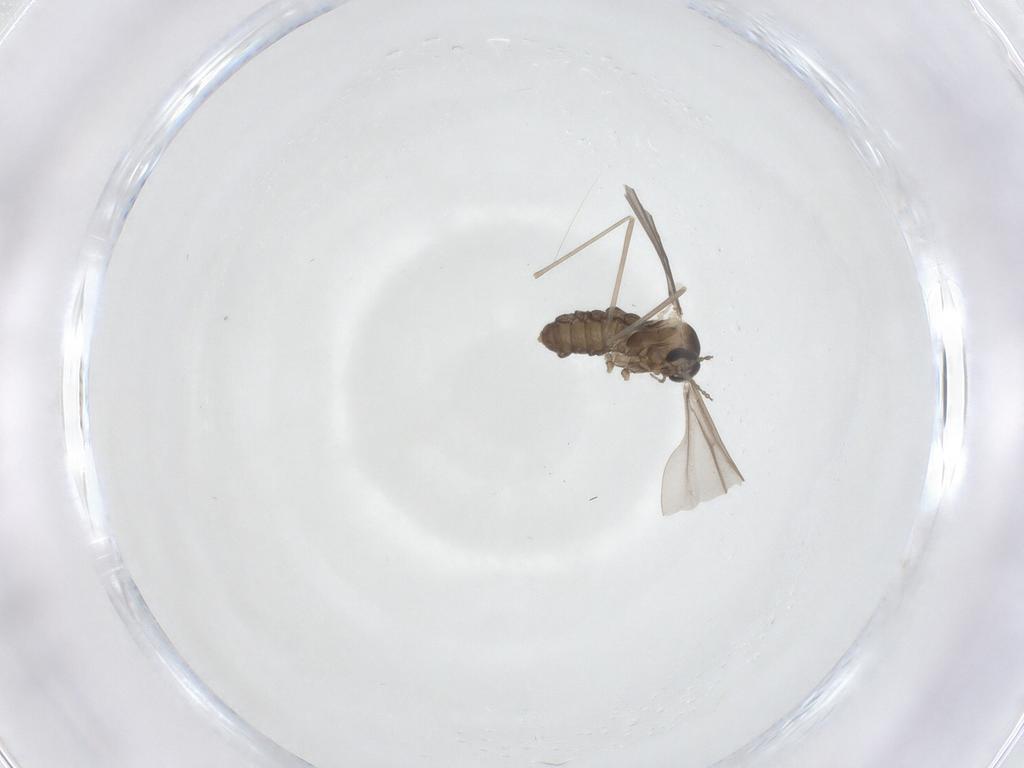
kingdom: Animalia
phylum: Arthropoda
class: Insecta
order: Diptera
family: Cecidomyiidae
